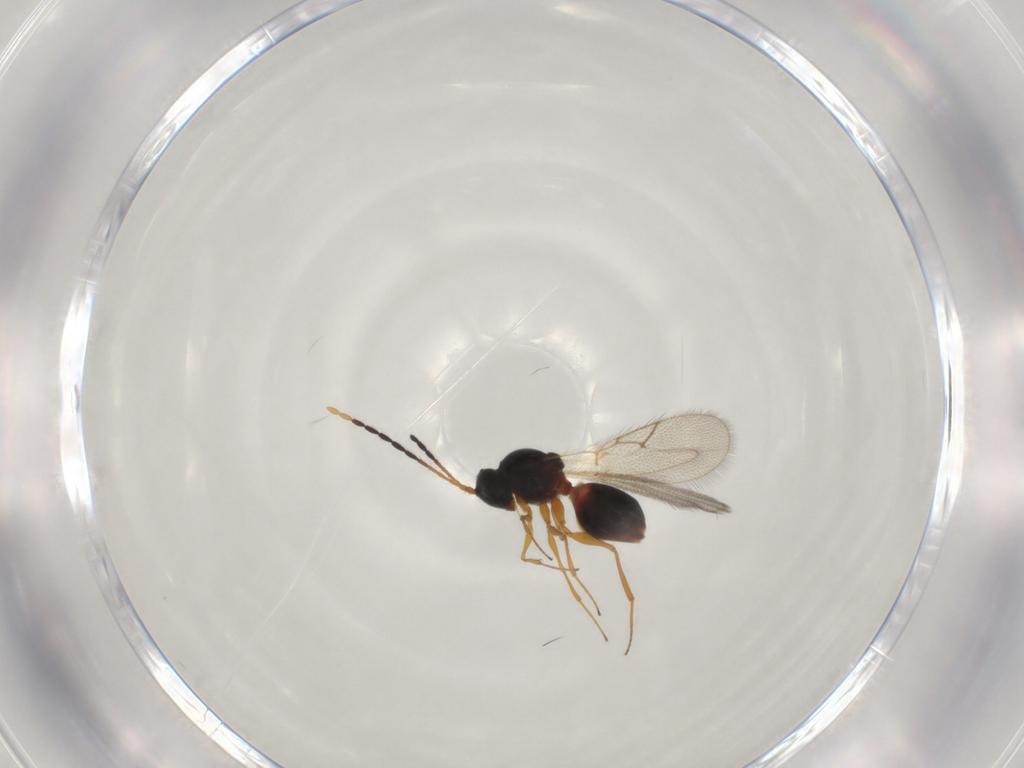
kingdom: Animalia
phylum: Arthropoda
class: Insecta
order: Hymenoptera
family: Figitidae
